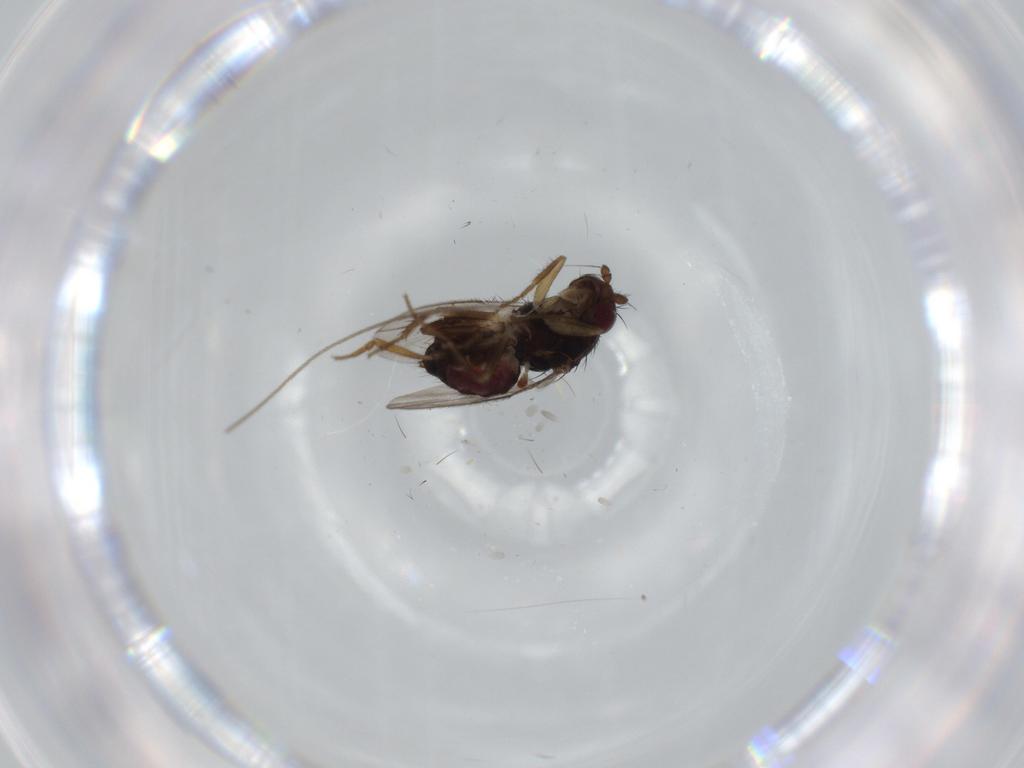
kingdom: Animalia
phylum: Arthropoda
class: Insecta
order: Diptera
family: Sphaeroceridae
